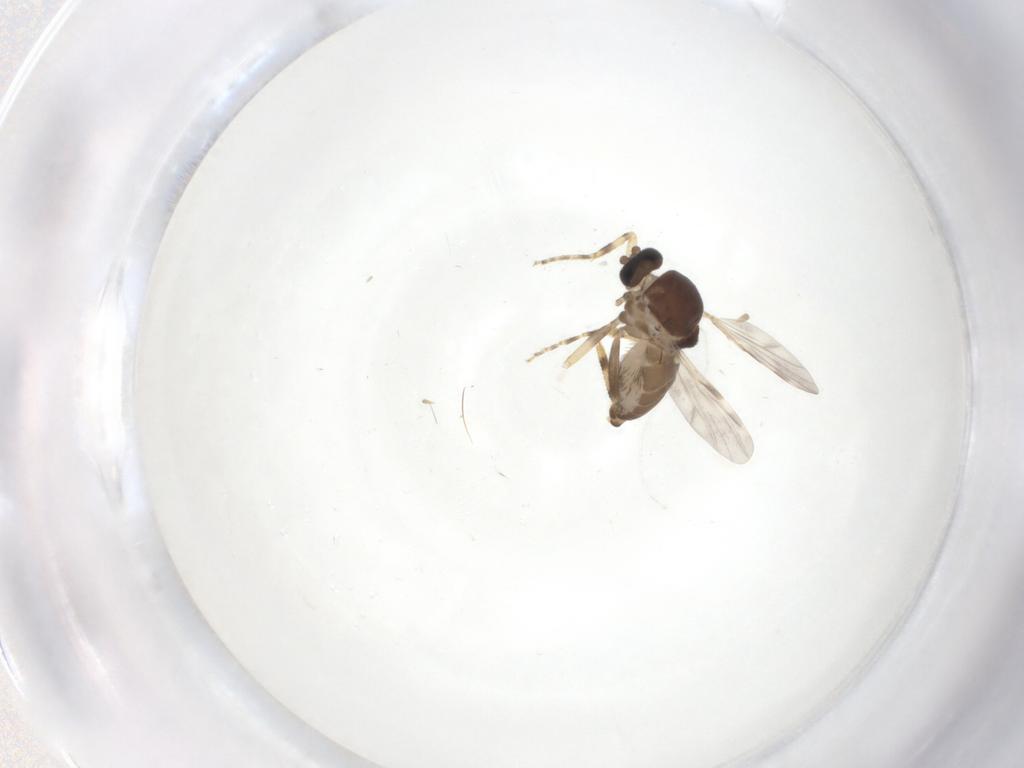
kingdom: Animalia
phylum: Arthropoda
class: Insecta
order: Diptera
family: Ceratopogonidae
